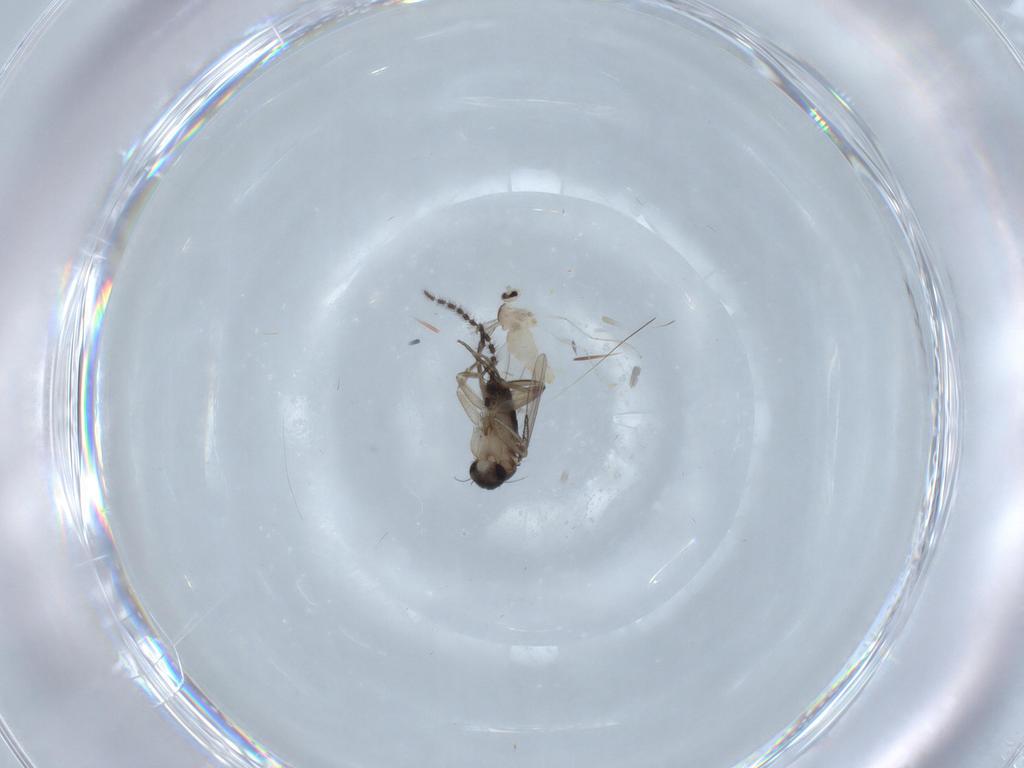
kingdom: Animalia
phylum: Arthropoda
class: Insecta
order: Diptera
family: Phoridae
